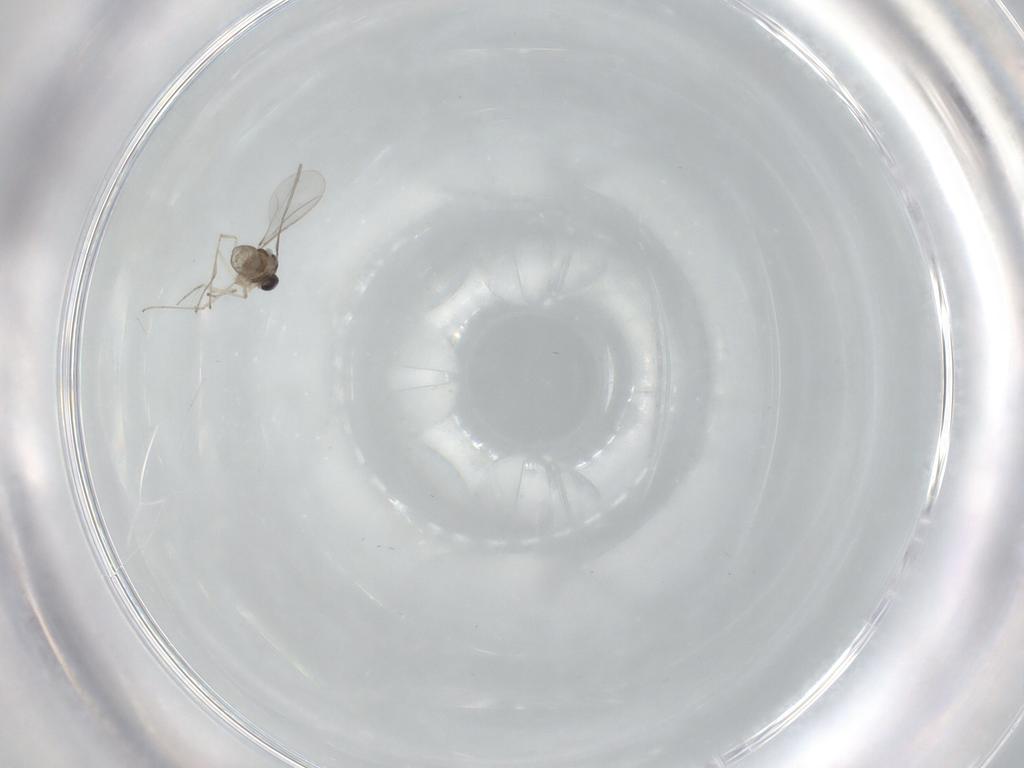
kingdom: Animalia
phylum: Arthropoda
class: Insecta
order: Diptera
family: Cecidomyiidae
